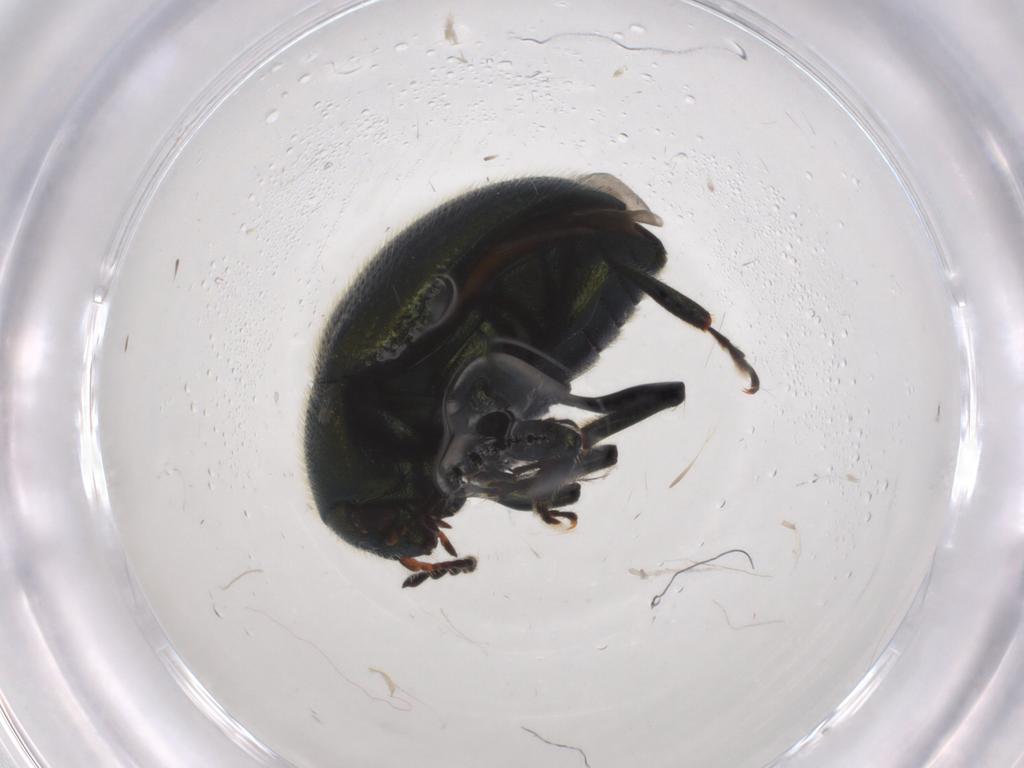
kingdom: Animalia
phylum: Arthropoda
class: Insecta
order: Coleoptera
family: Chrysomelidae
